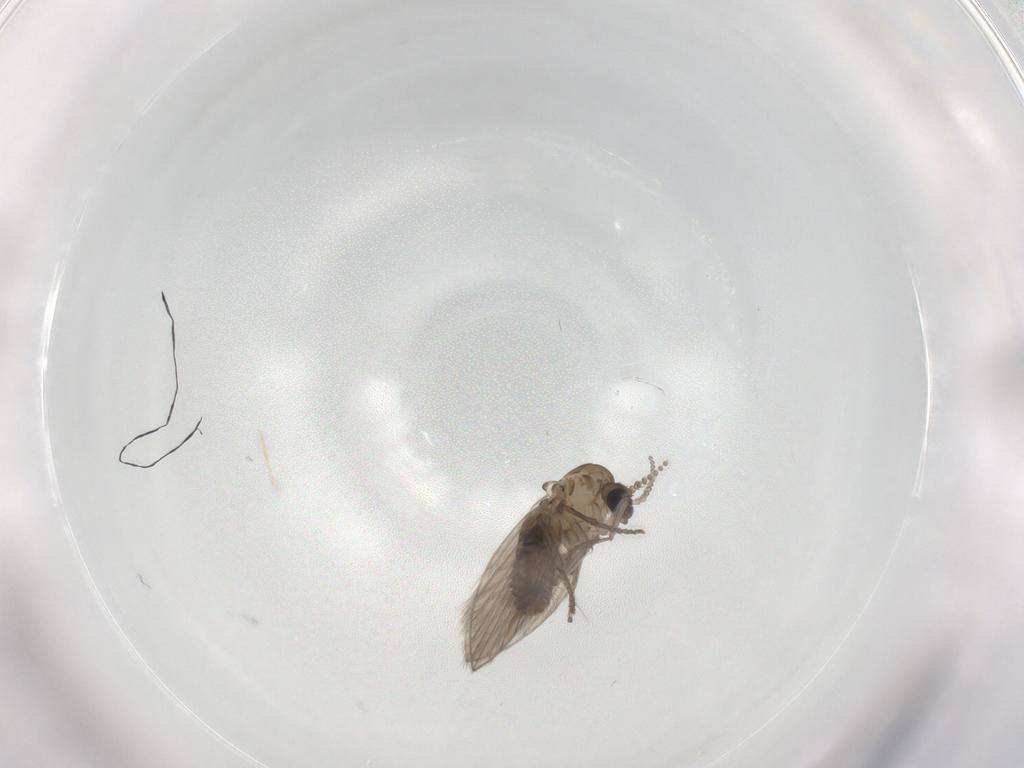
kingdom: Animalia
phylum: Arthropoda
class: Insecta
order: Diptera
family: Psychodidae
